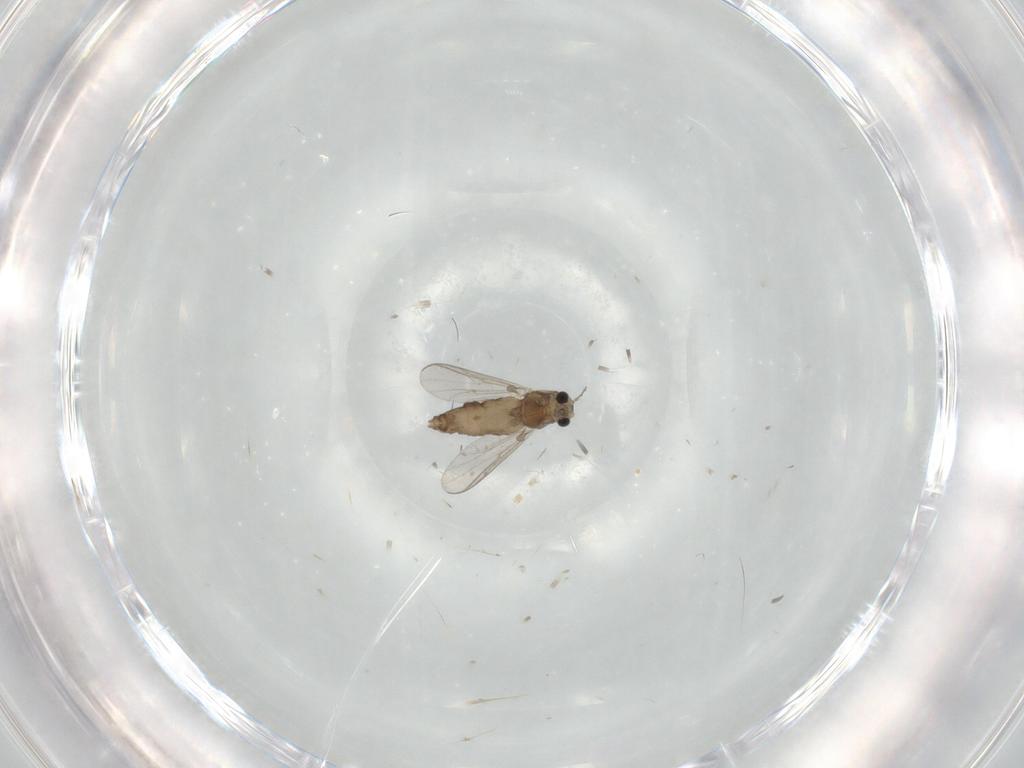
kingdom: Animalia
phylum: Arthropoda
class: Insecta
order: Diptera
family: Chironomidae
